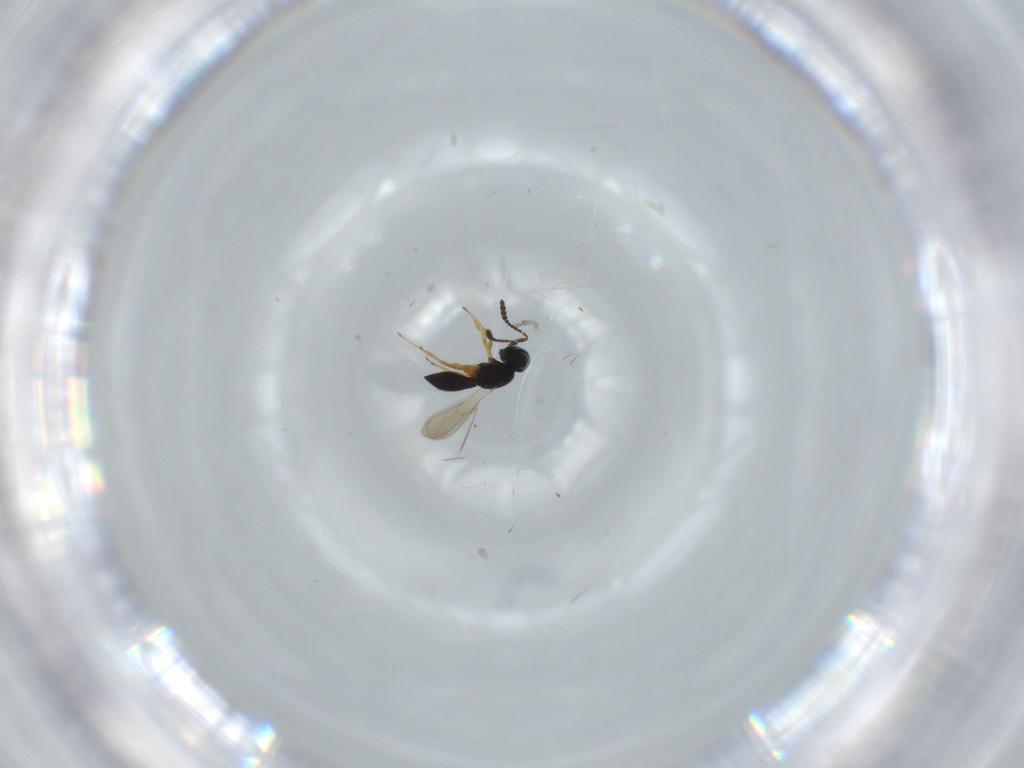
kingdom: Animalia
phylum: Arthropoda
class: Insecta
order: Hymenoptera
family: Scelionidae
